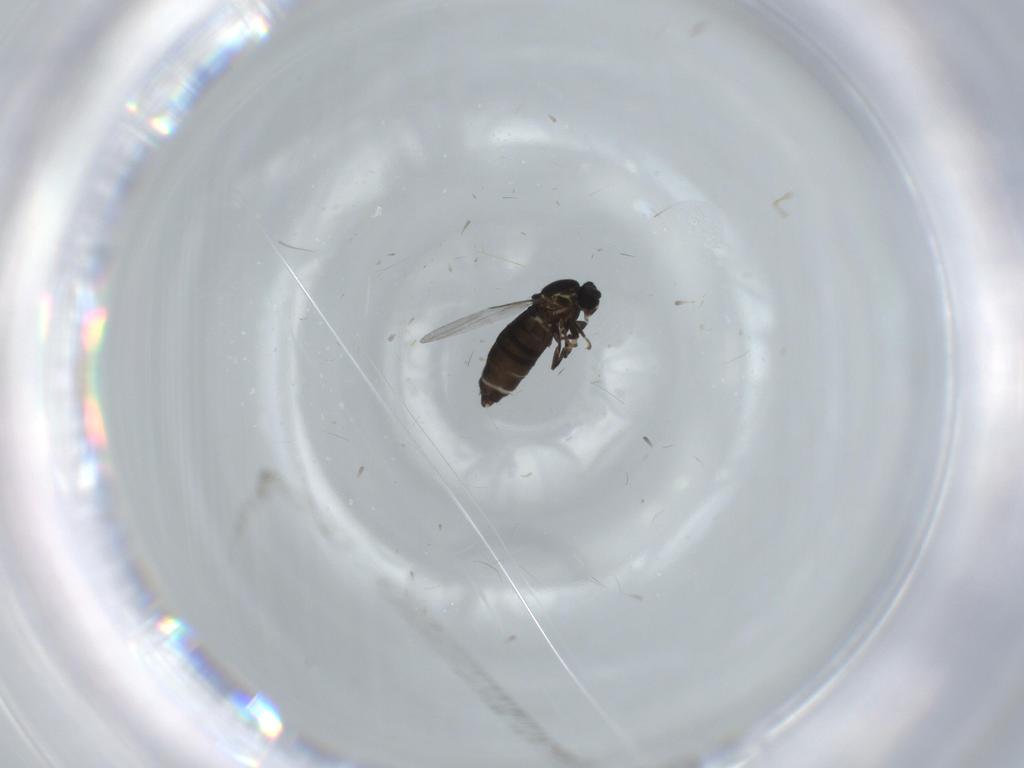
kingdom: Animalia
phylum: Arthropoda
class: Insecta
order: Diptera
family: Scatopsidae
